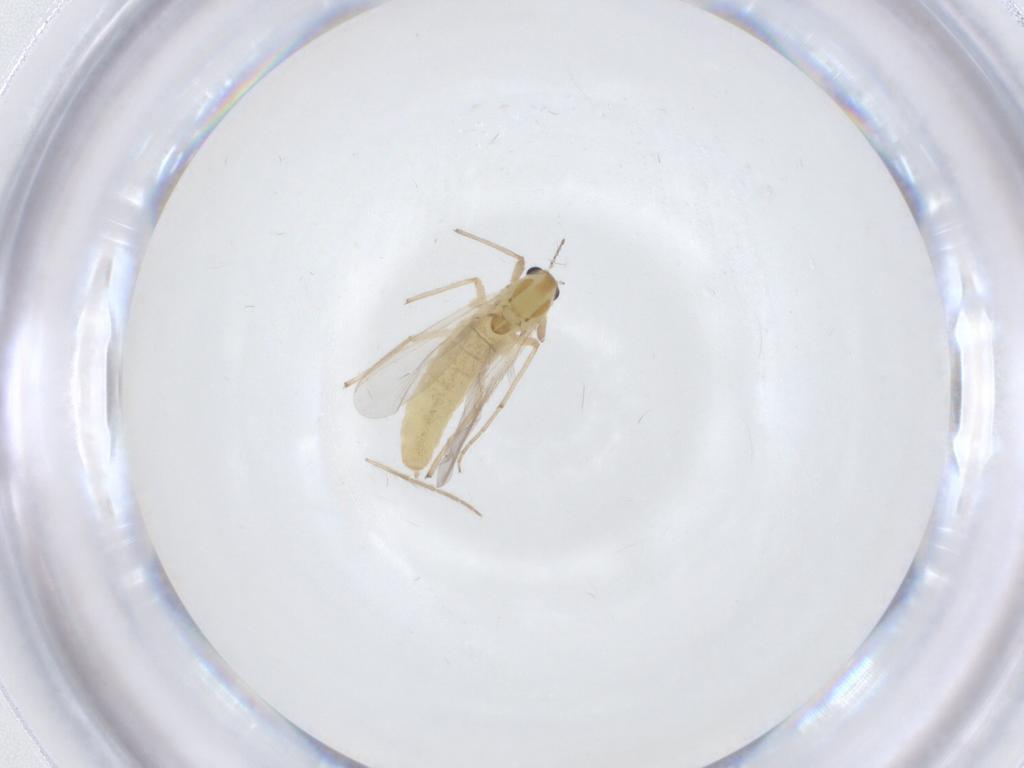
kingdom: Animalia
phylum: Arthropoda
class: Insecta
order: Diptera
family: Chironomidae
